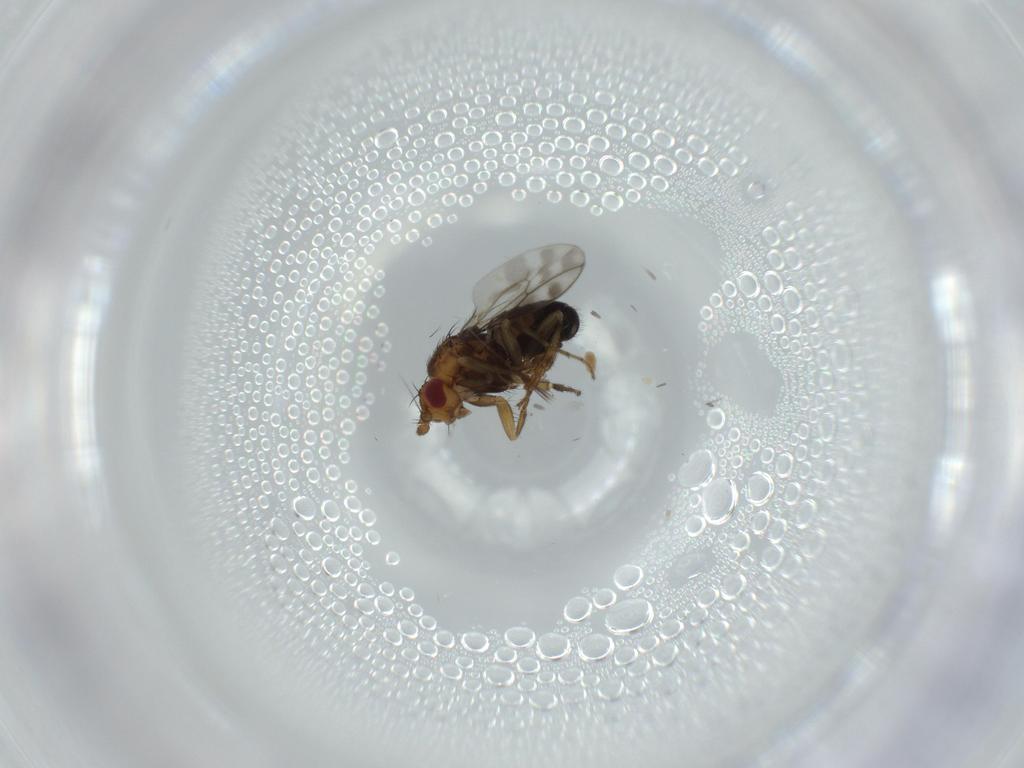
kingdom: Animalia
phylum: Arthropoda
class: Insecta
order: Diptera
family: Sphaeroceridae
